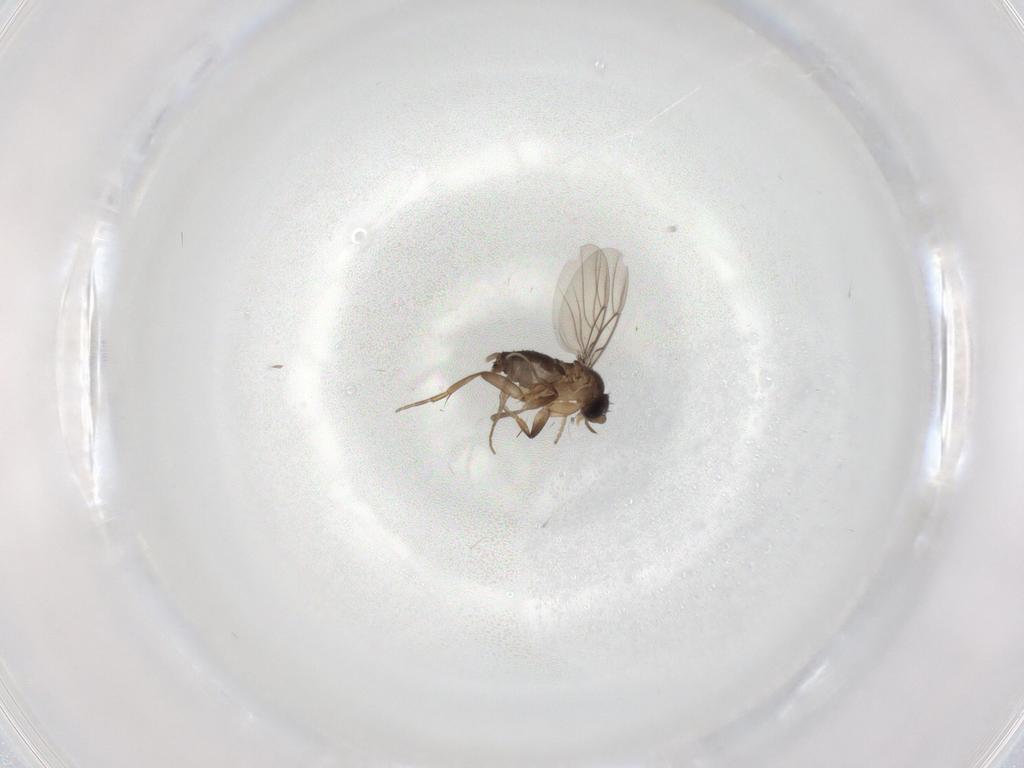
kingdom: Animalia
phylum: Arthropoda
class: Insecta
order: Diptera
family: Phoridae
